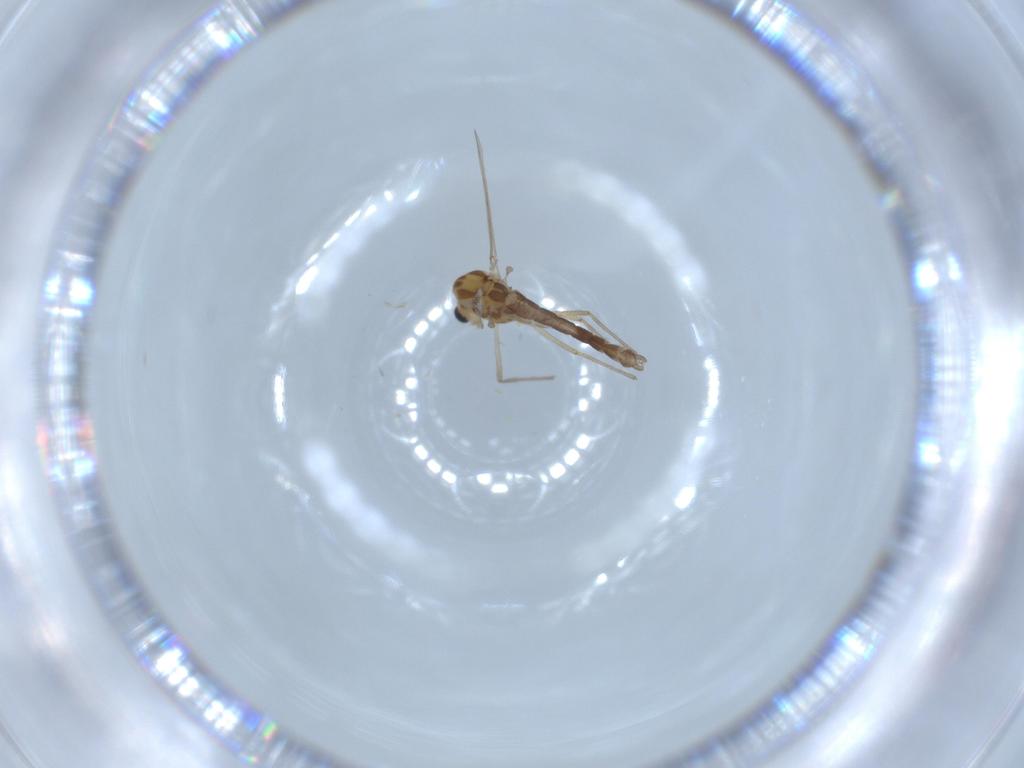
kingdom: Animalia
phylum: Arthropoda
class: Insecta
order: Diptera
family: Chironomidae
